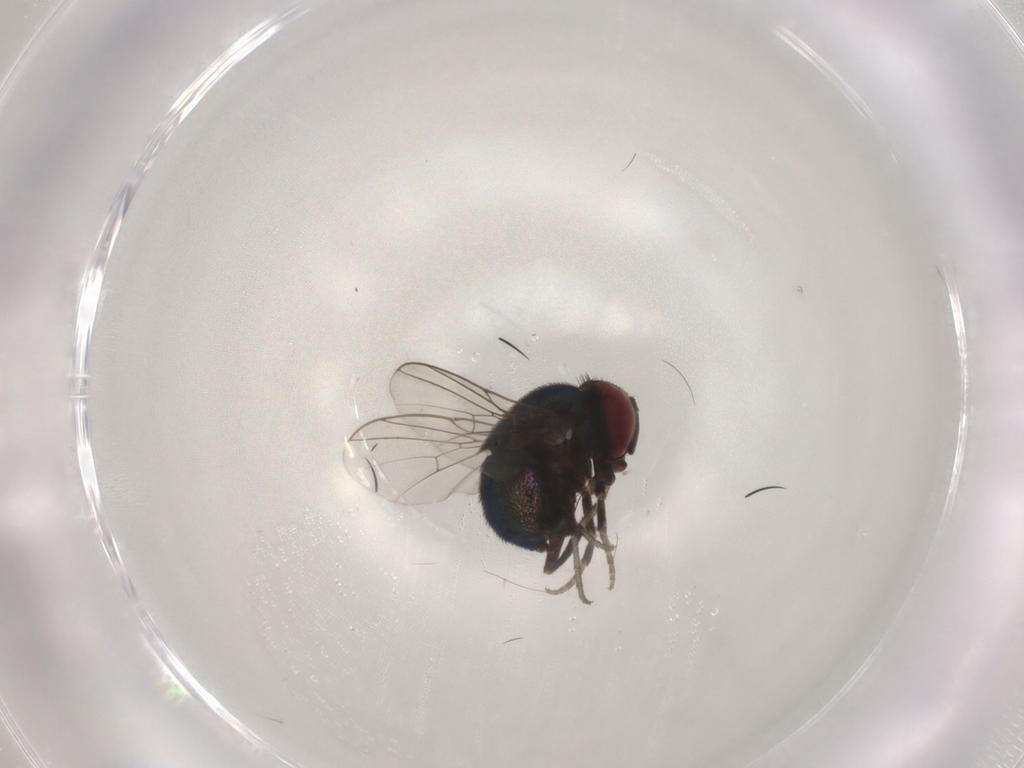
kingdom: Animalia
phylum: Arthropoda
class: Insecta
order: Diptera
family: Cryptochetidae
